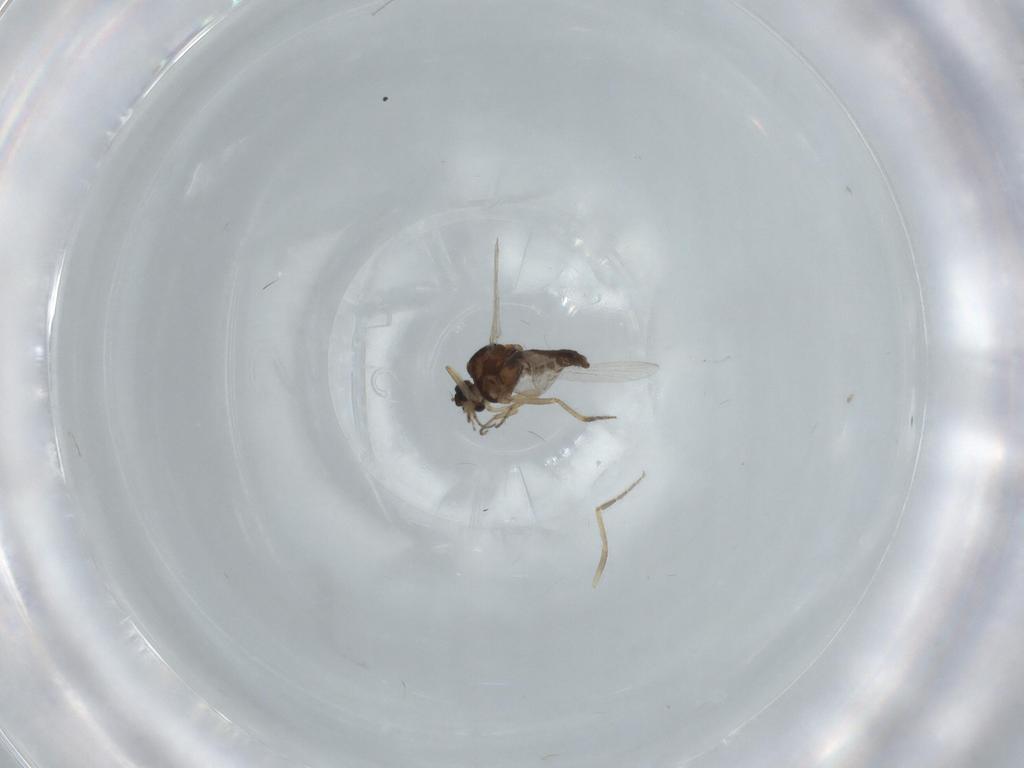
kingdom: Animalia
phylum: Arthropoda
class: Insecta
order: Diptera
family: Ceratopogonidae
